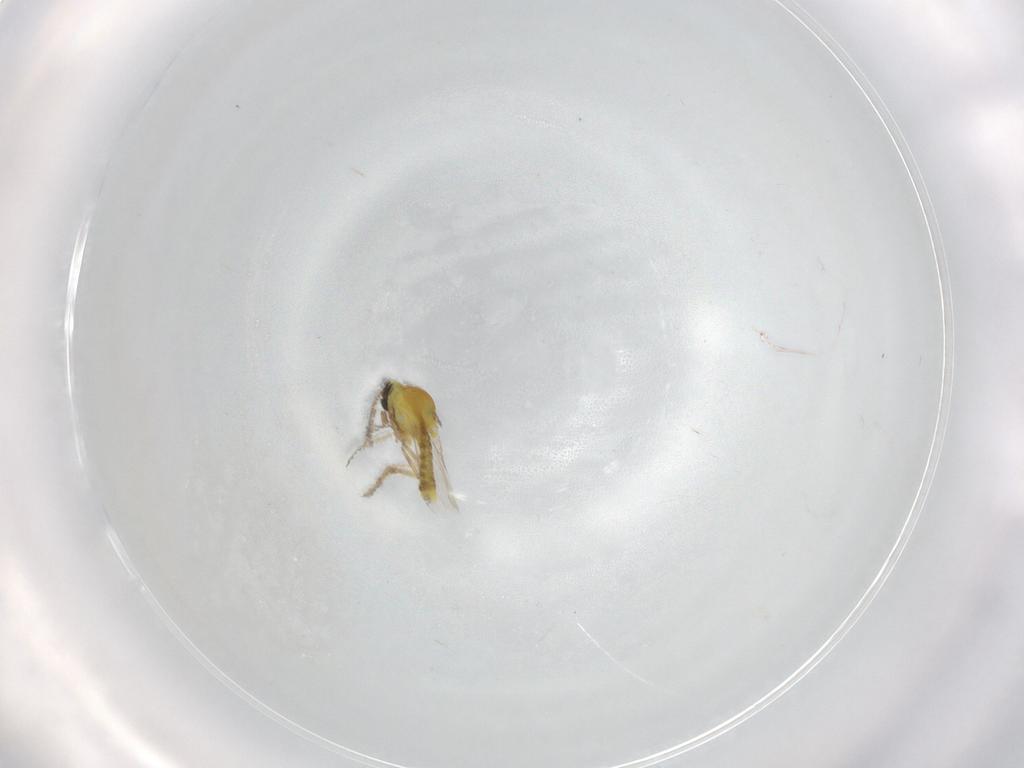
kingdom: Animalia
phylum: Arthropoda
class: Insecta
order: Diptera
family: Ceratopogonidae
